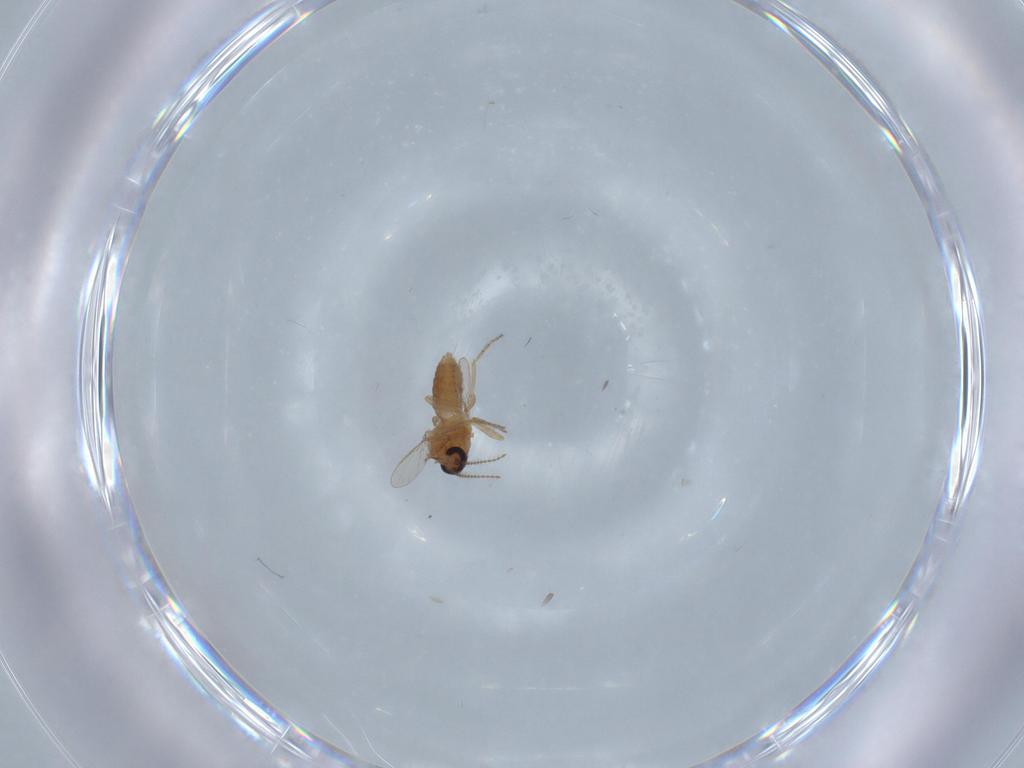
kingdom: Animalia
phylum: Arthropoda
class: Insecta
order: Diptera
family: Ceratopogonidae
